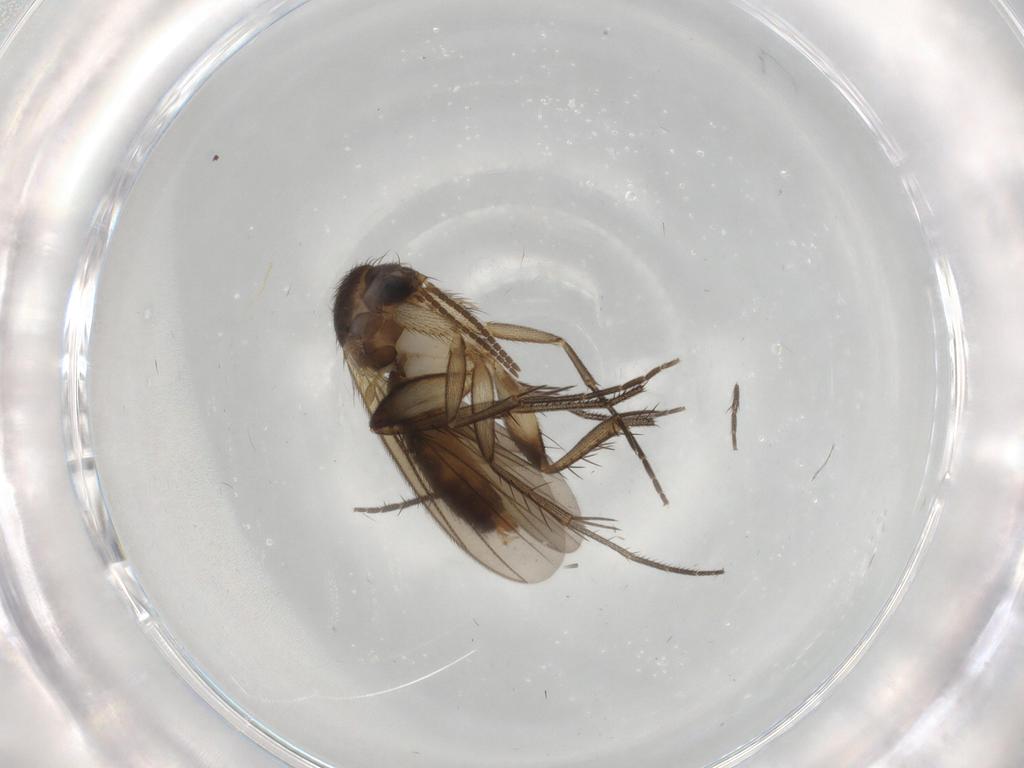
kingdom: Animalia
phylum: Arthropoda
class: Insecta
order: Diptera
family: Mycetophilidae
